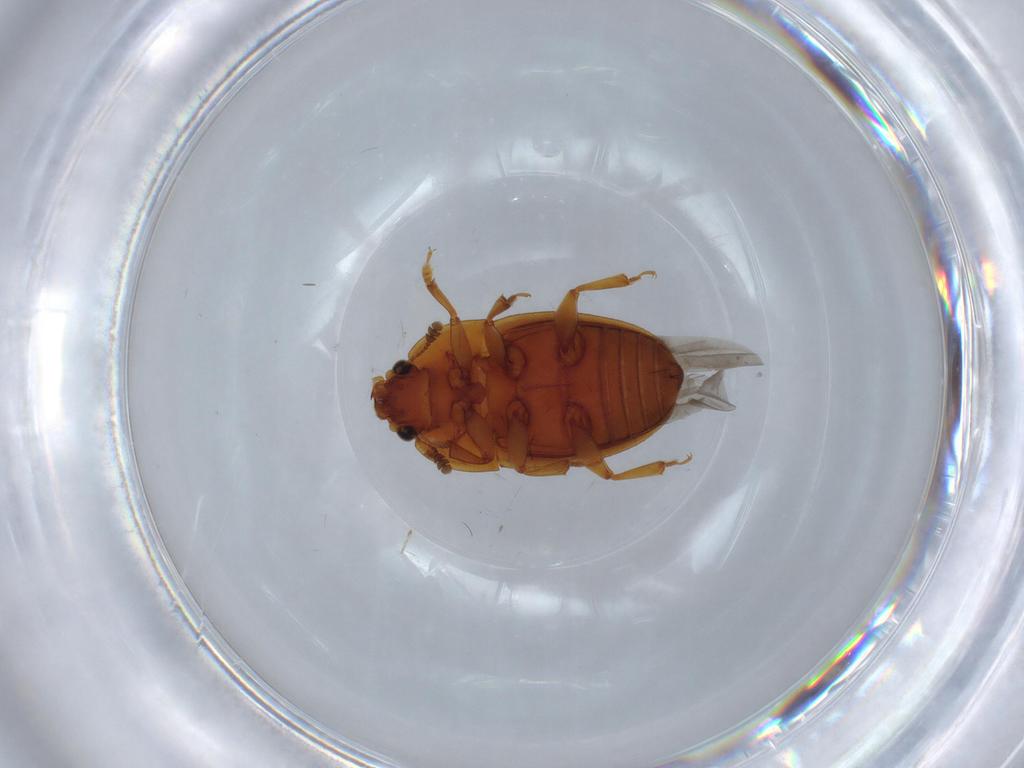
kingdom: Animalia
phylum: Arthropoda
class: Insecta
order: Coleoptera
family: Nitidulidae
